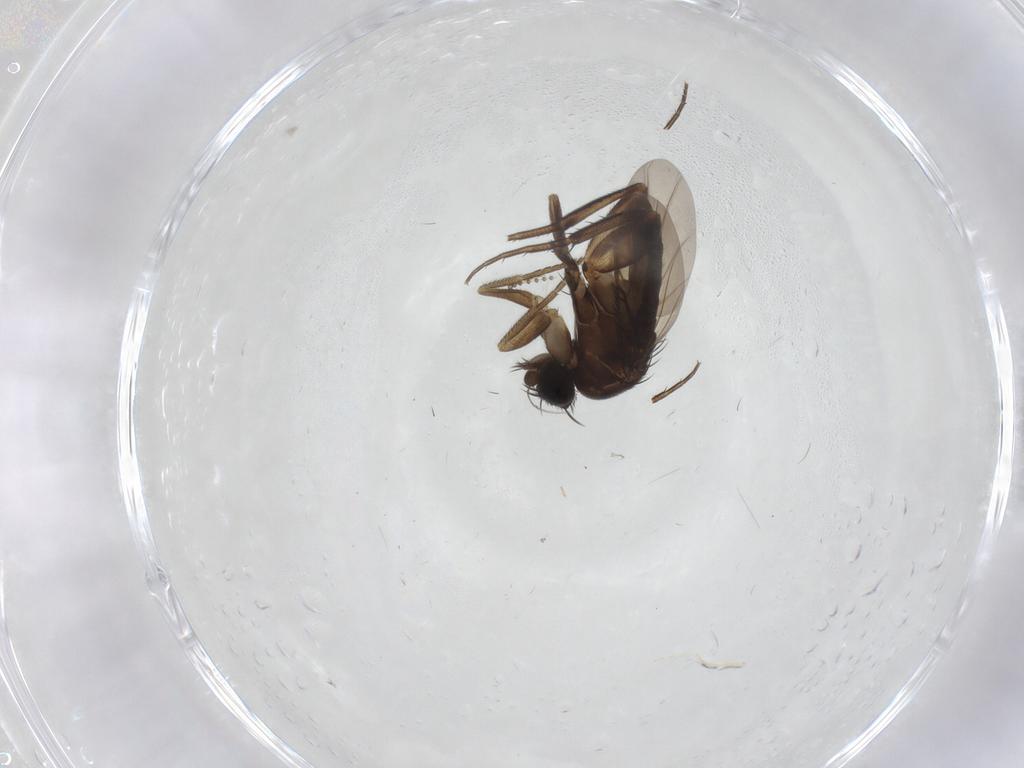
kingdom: Animalia
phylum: Arthropoda
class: Insecta
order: Diptera
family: Phoridae
